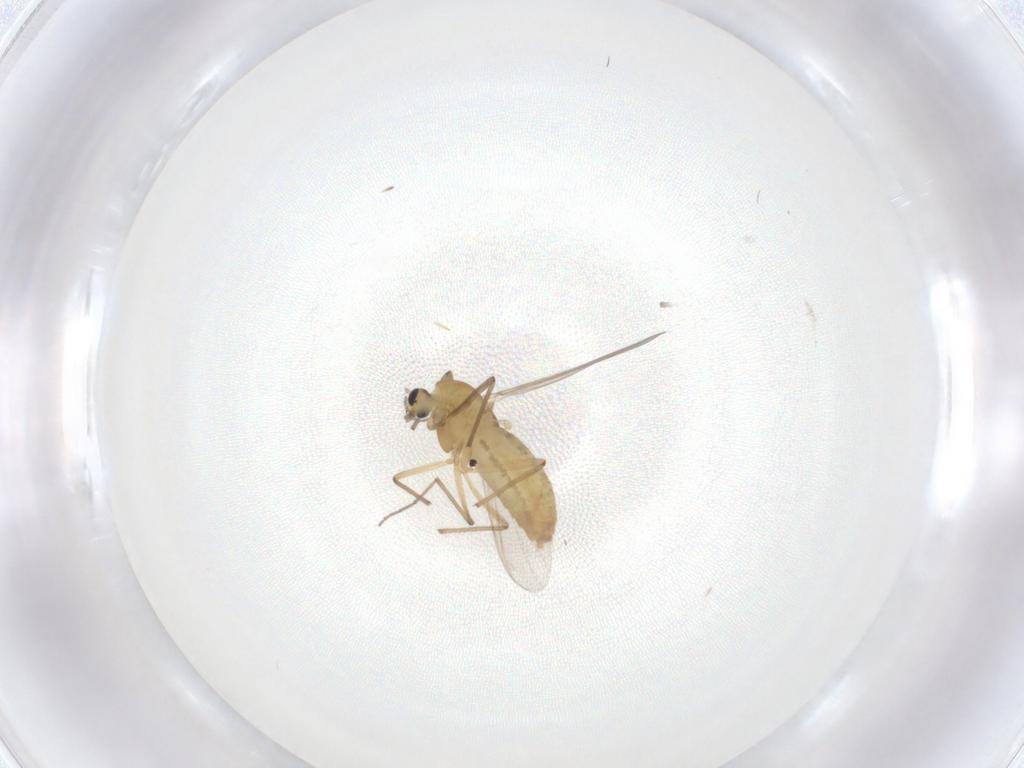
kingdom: Animalia
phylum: Arthropoda
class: Insecta
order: Diptera
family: Chironomidae
